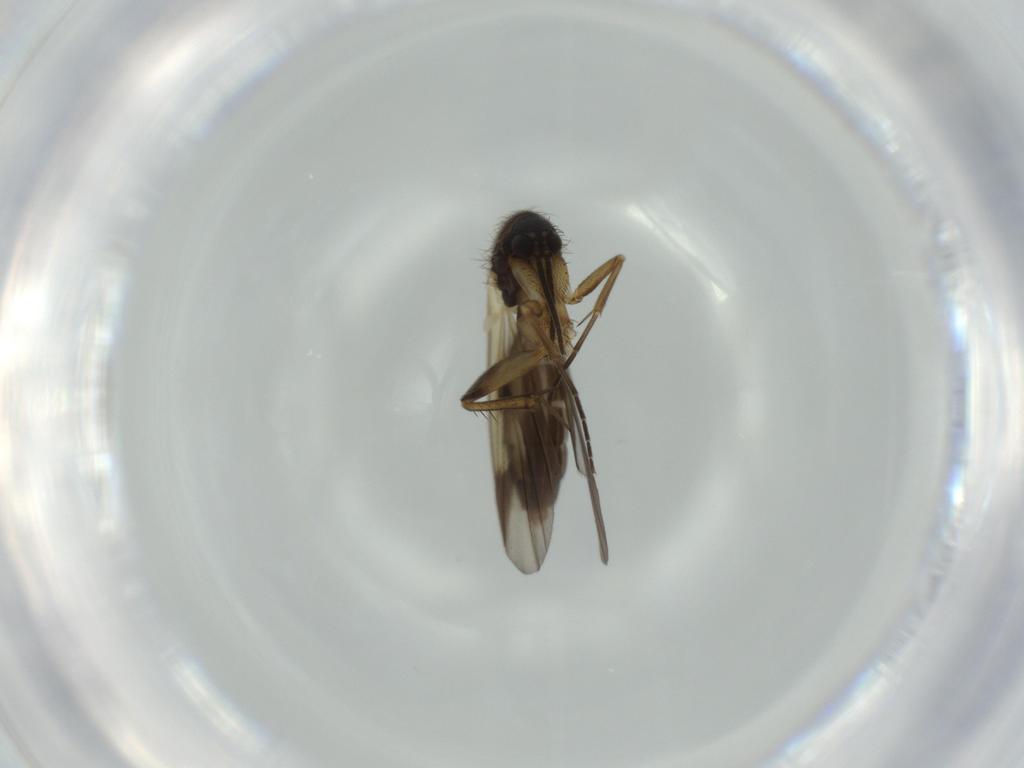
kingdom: Animalia
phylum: Arthropoda
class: Insecta
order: Diptera
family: Mycetophilidae
